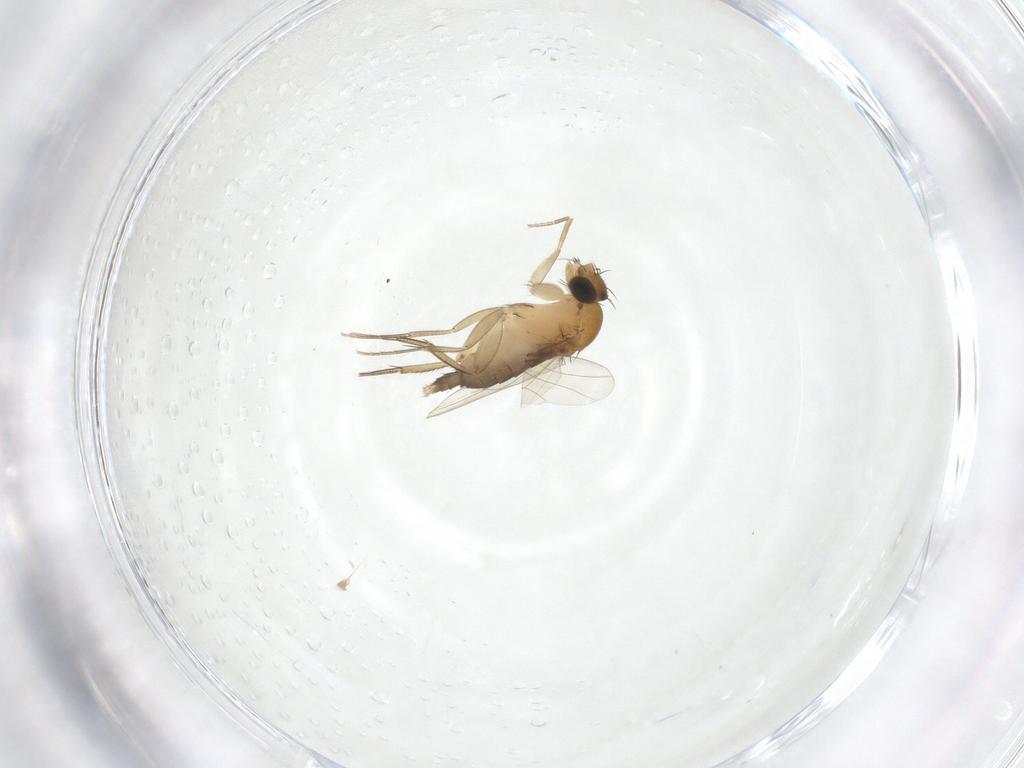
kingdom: Animalia
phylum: Arthropoda
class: Insecta
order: Diptera
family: Phoridae
